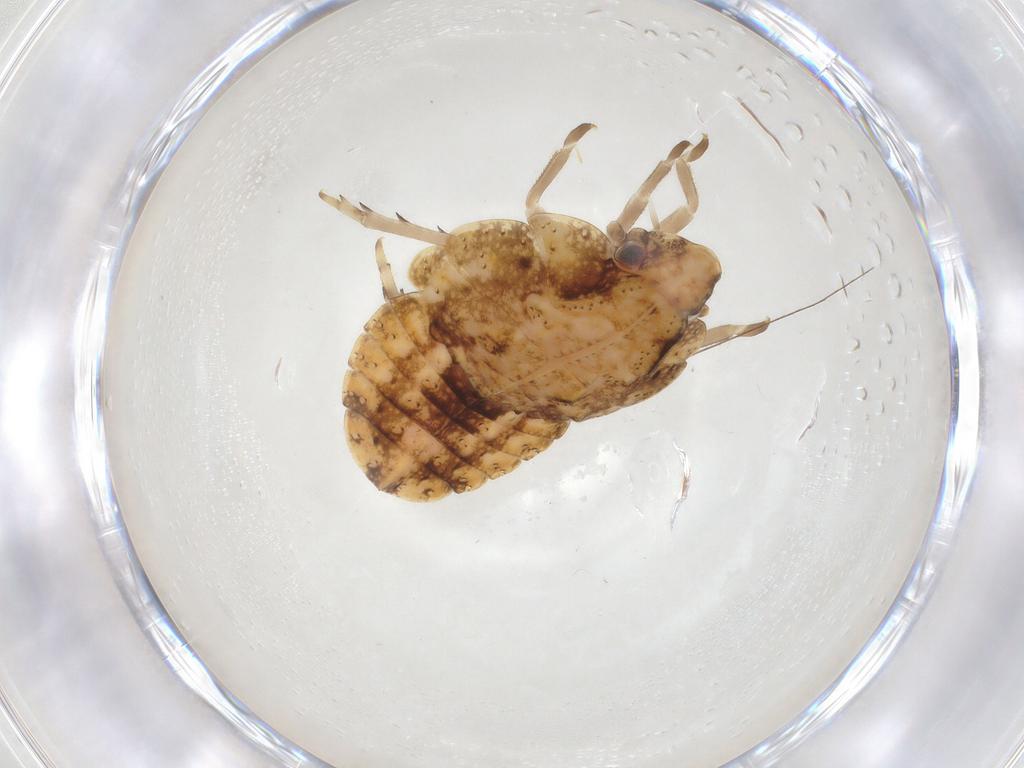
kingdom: Animalia
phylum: Arthropoda
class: Insecta
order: Hemiptera
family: Flatidae
